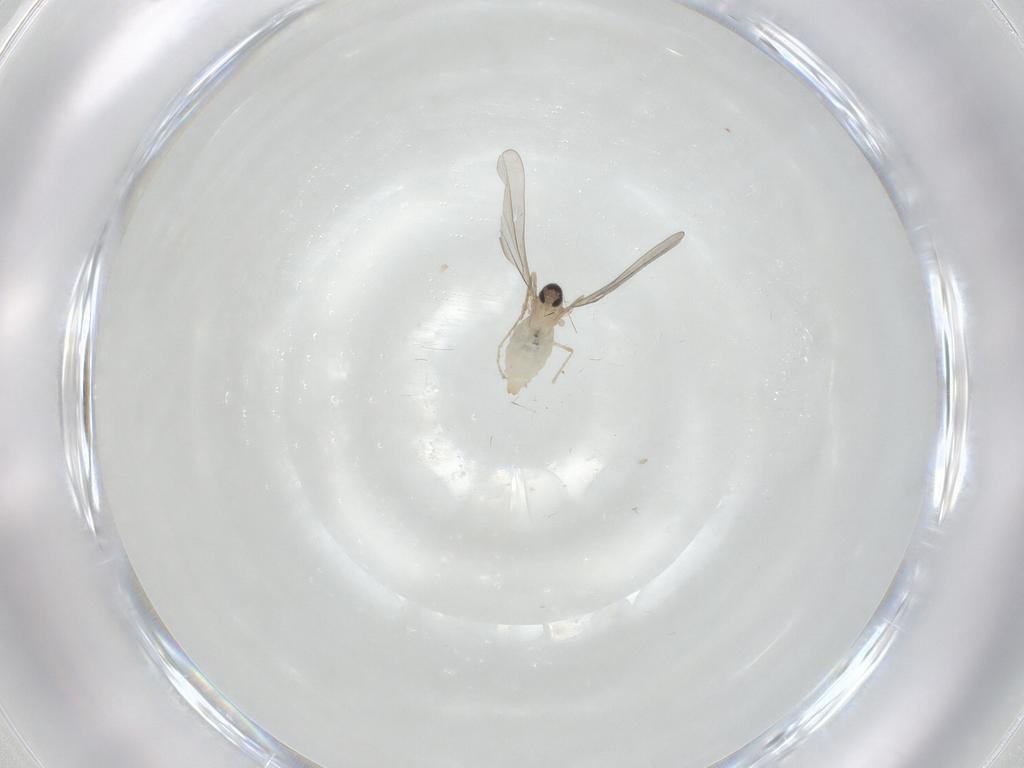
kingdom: Animalia
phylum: Arthropoda
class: Insecta
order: Diptera
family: Cecidomyiidae
